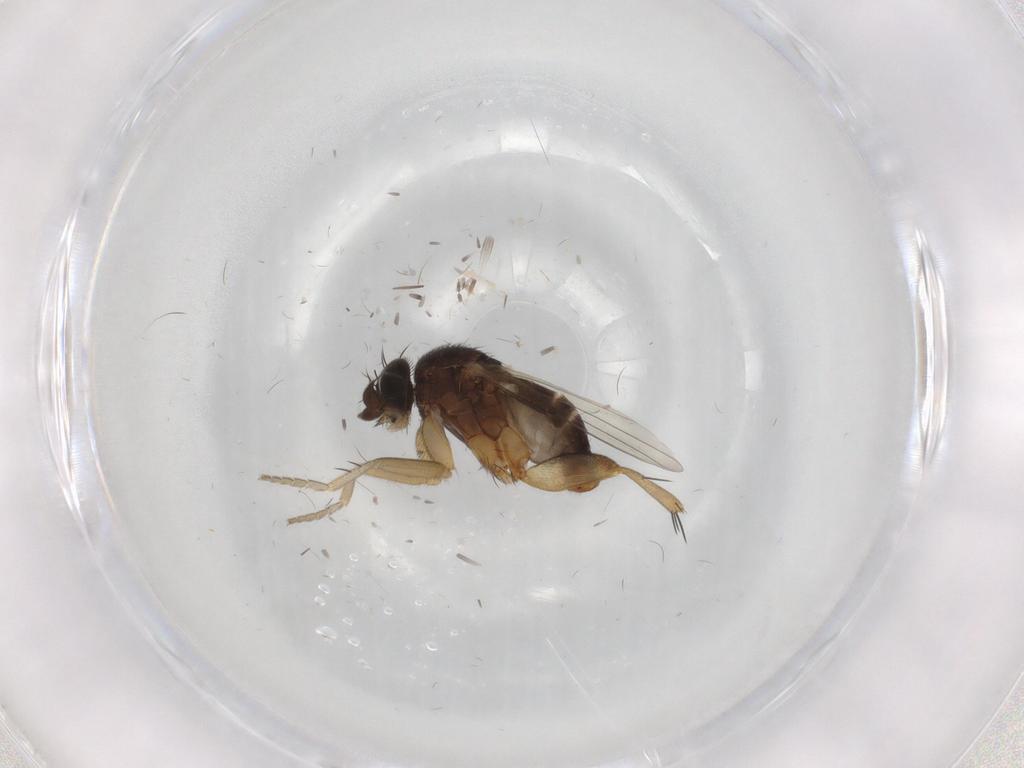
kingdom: Animalia
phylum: Arthropoda
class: Insecta
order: Diptera
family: Phoridae
